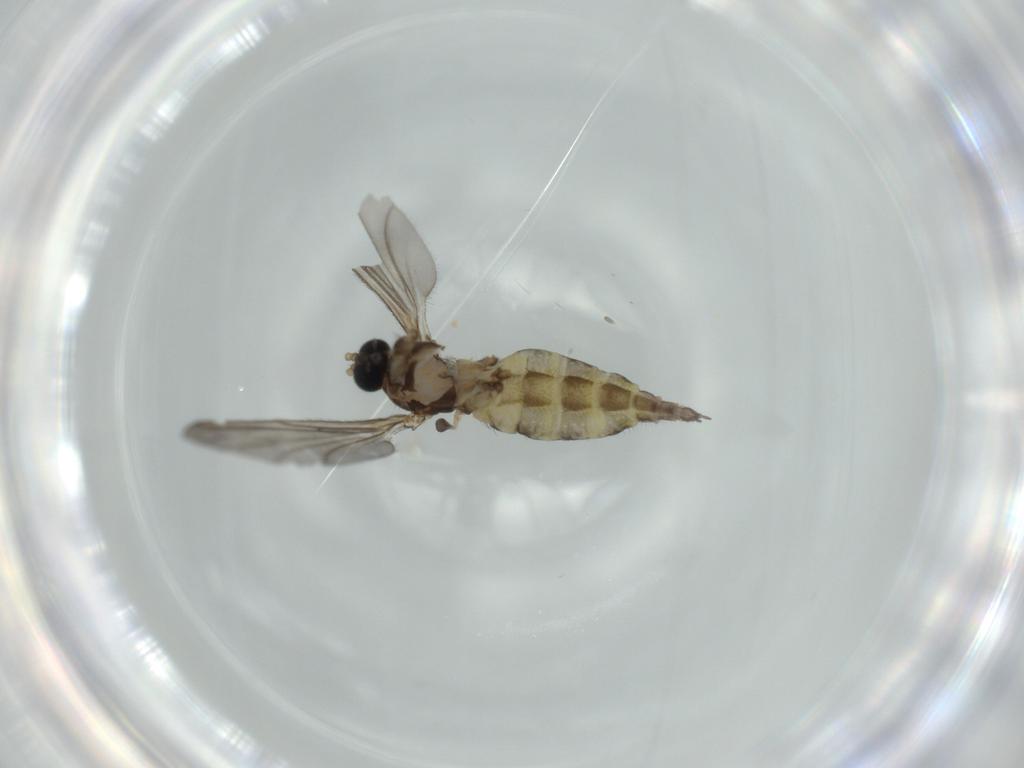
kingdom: Animalia
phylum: Arthropoda
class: Insecta
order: Diptera
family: Sciaridae
